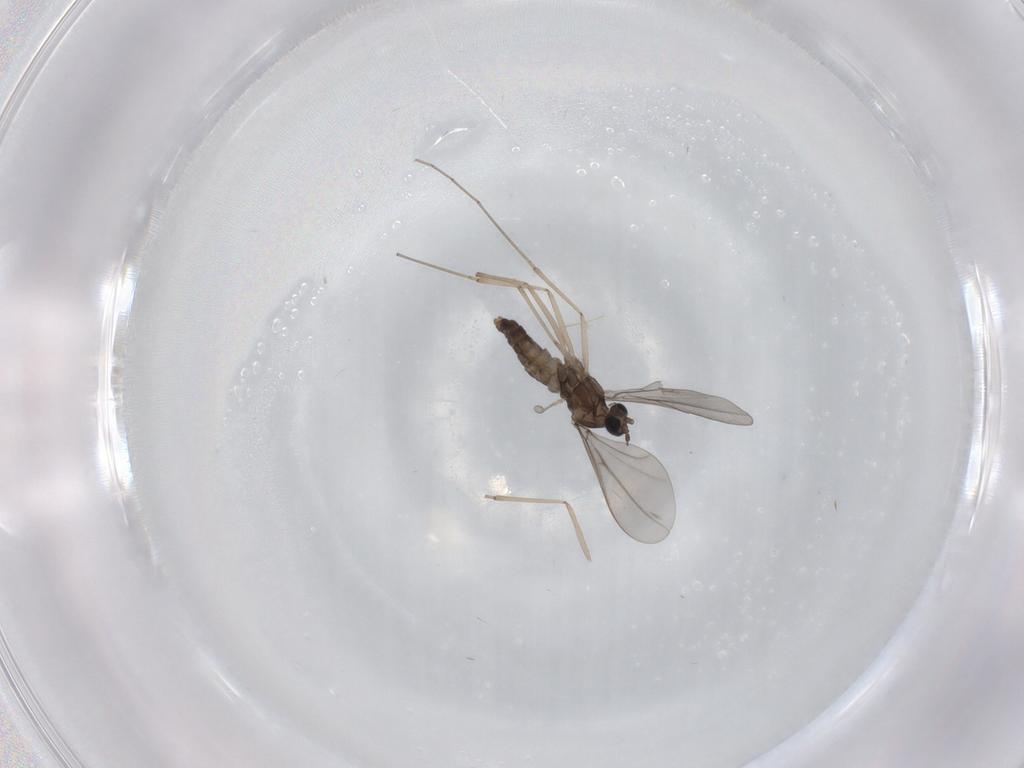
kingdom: Animalia
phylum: Arthropoda
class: Insecta
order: Diptera
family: Cecidomyiidae
